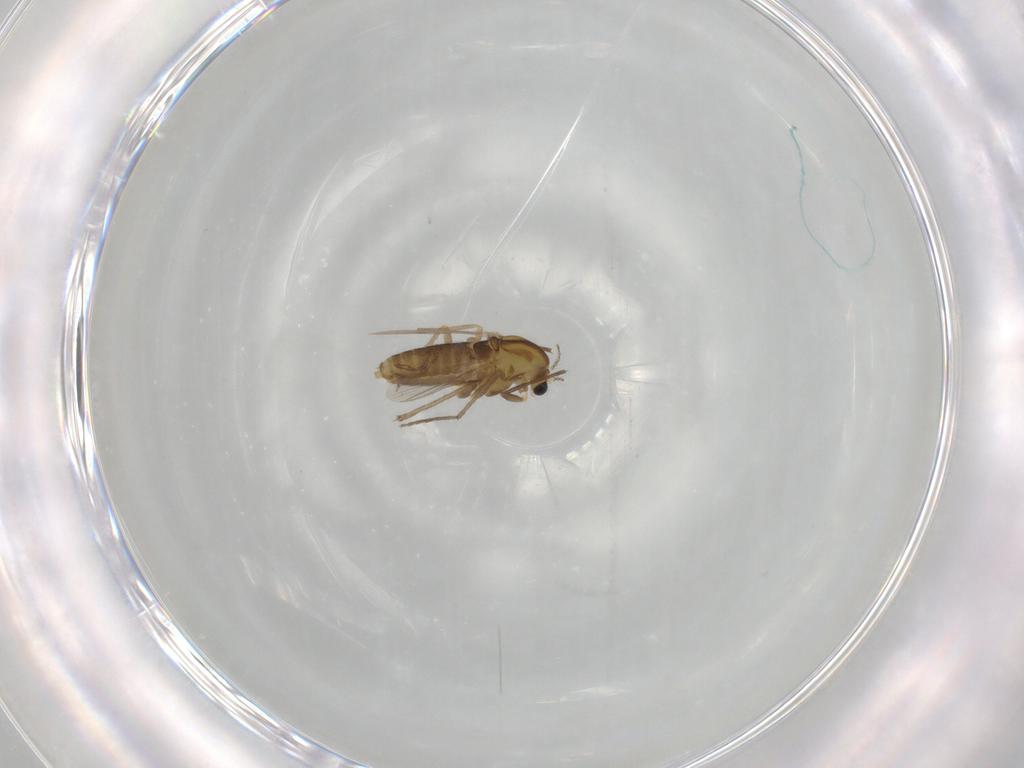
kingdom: Animalia
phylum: Arthropoda
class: Insecta
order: Diptera
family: Chironomidae
